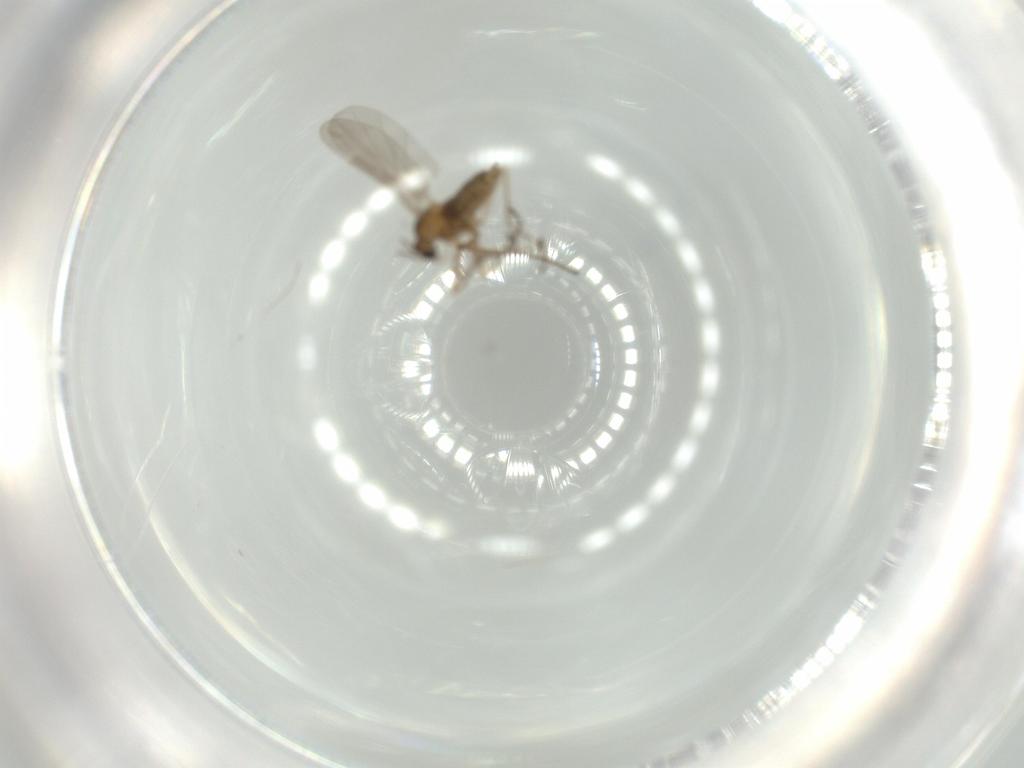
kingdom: Animalia
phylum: Arthropoda
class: Insecta
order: Diptera
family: Cecidomyiidae
